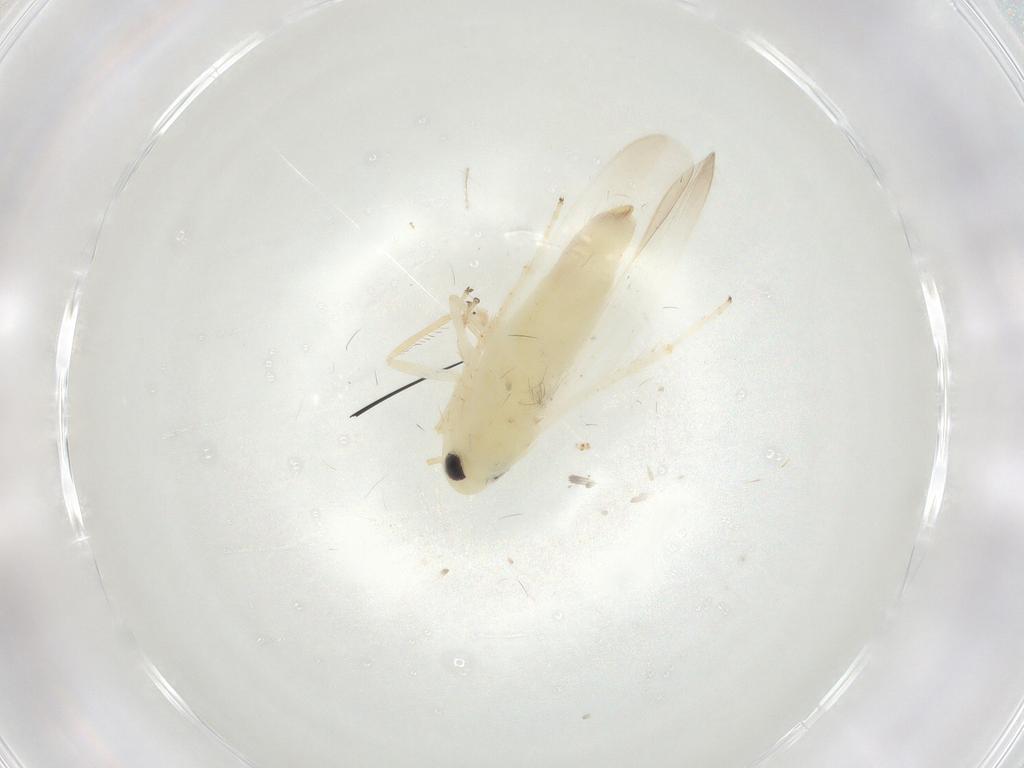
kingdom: Animalia
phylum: Arthropoda
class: Insecta
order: Hemiptera
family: Cicadellidae
